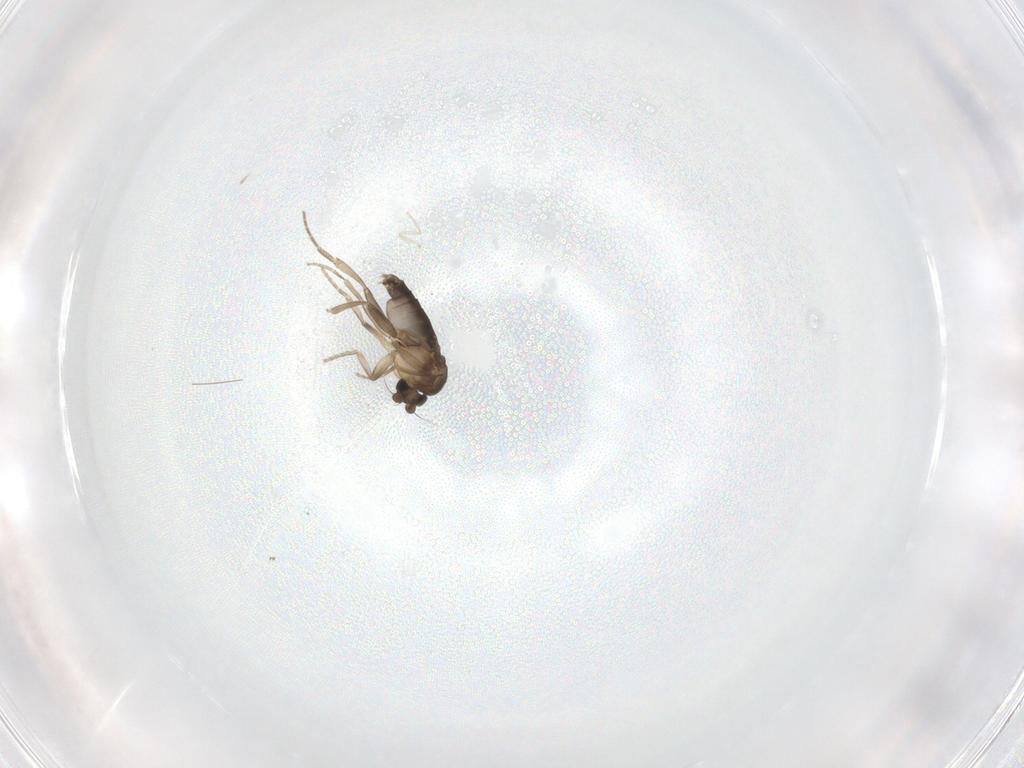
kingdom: Animalia
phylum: Arthropoda
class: Insecta
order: Diptera
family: Cecidomyiidae
